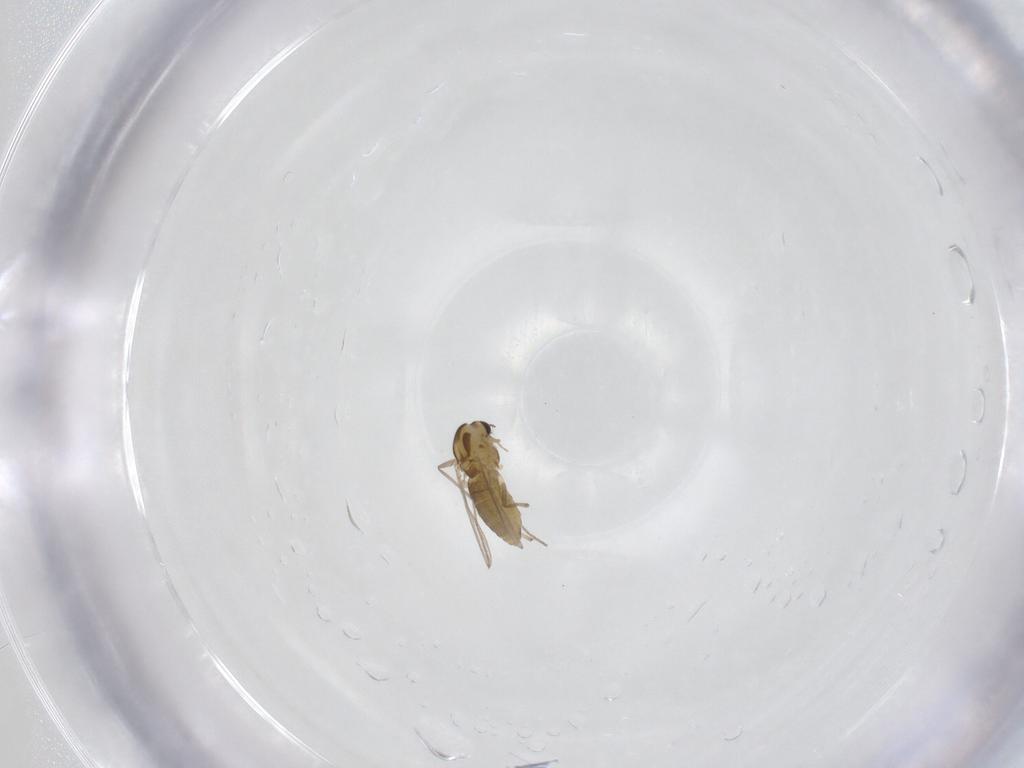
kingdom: Animalia
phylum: Arthropoda
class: Insecta
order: Diptera
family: Chironomidae
